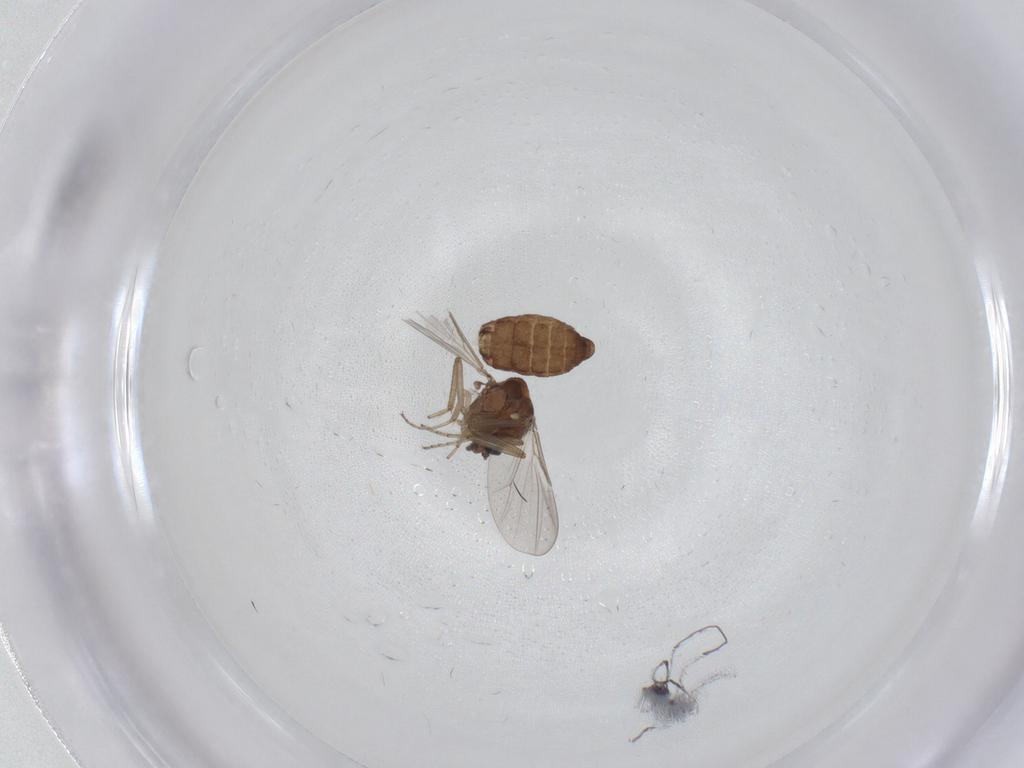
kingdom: Animalia
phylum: Arthropoda
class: Insecta
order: Diptera
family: Ceratopogonidae
